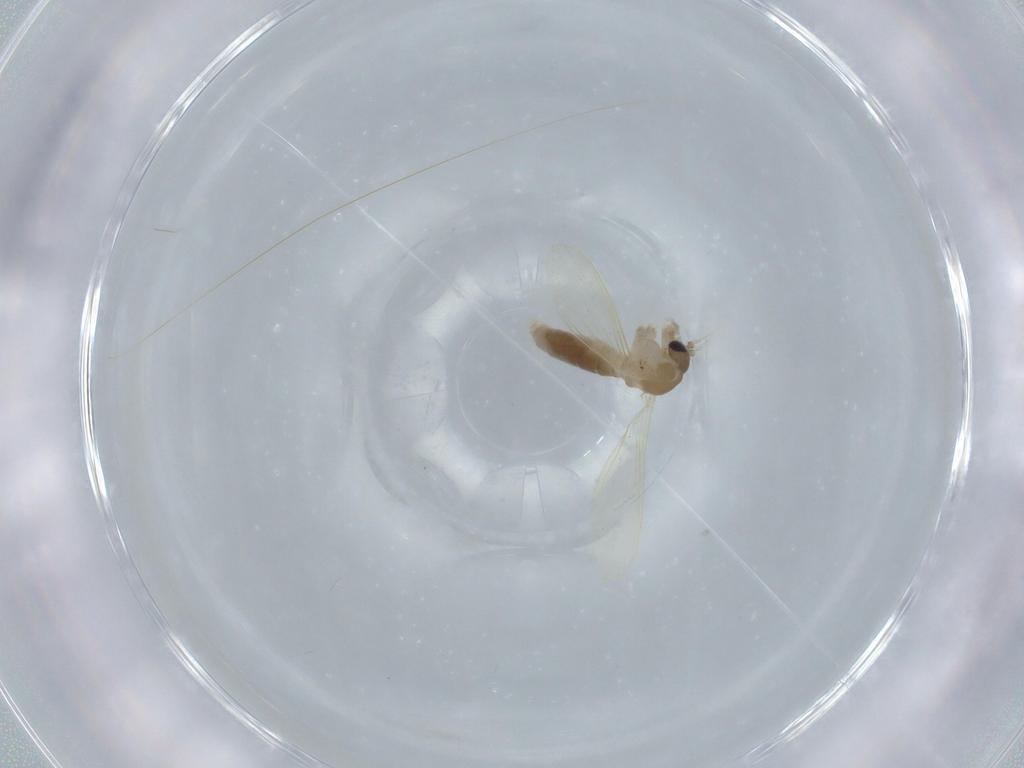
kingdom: Animalia
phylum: Arthropoda
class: Insecta
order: Diptera
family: Psychodidae
